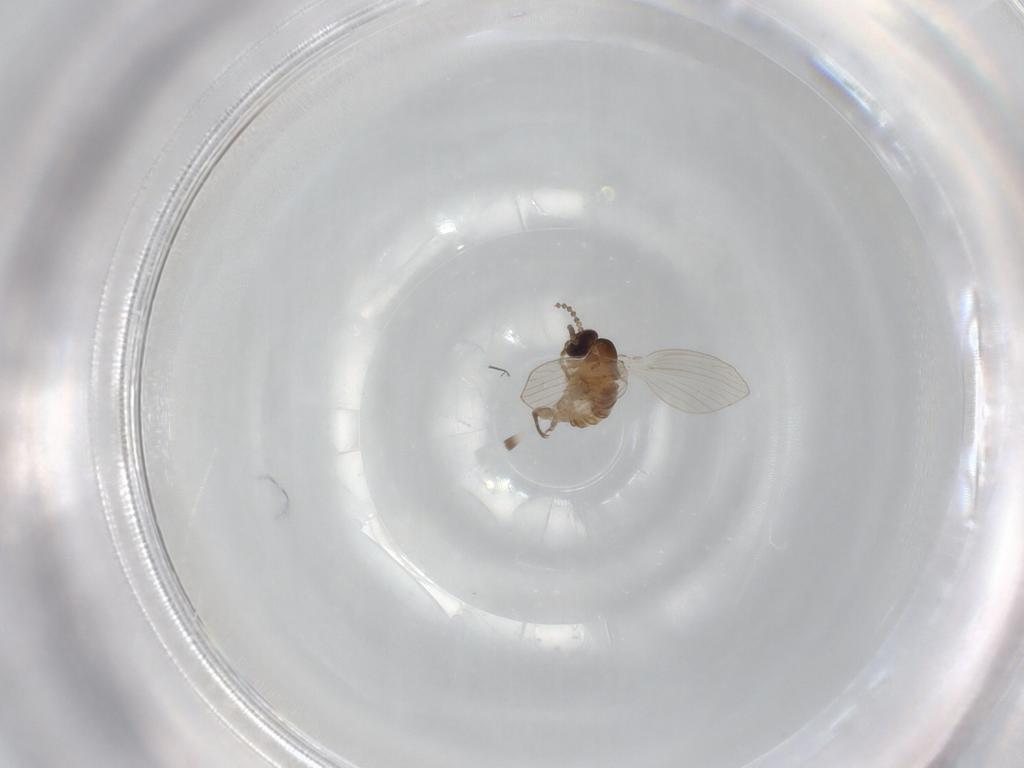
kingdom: Animalia
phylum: Arthropoda
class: Insecta
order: Diptera
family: Psychodidae
